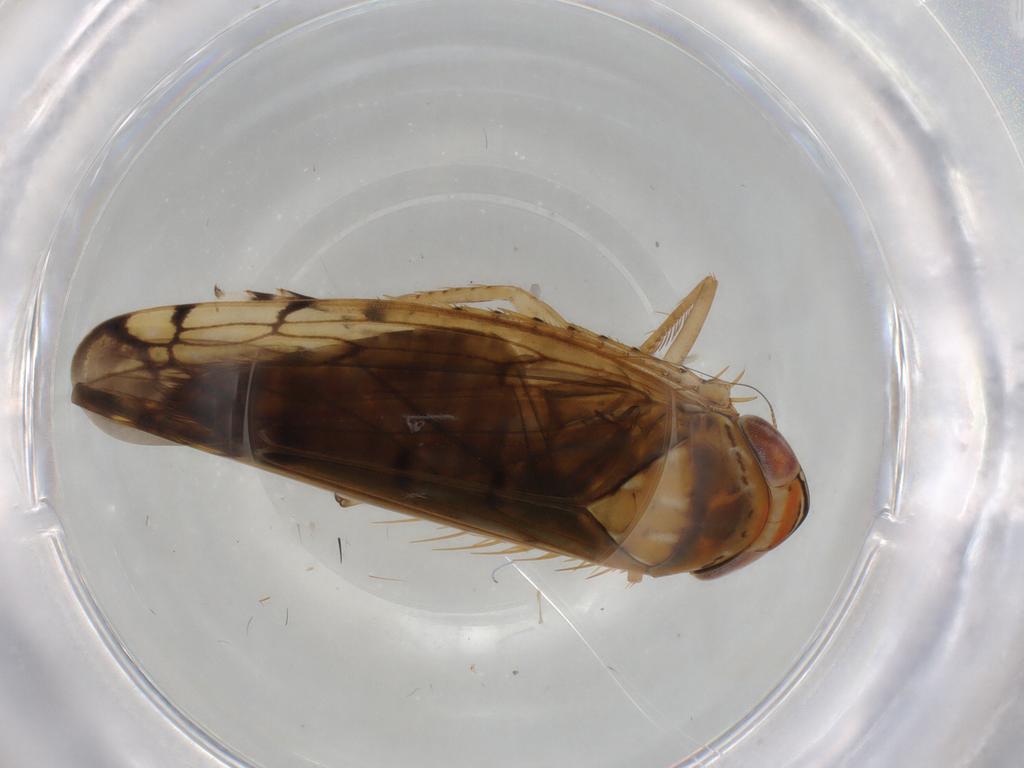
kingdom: Animalia
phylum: Arthropoda
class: Insecta
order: Hemiptera
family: Cicadellidae
